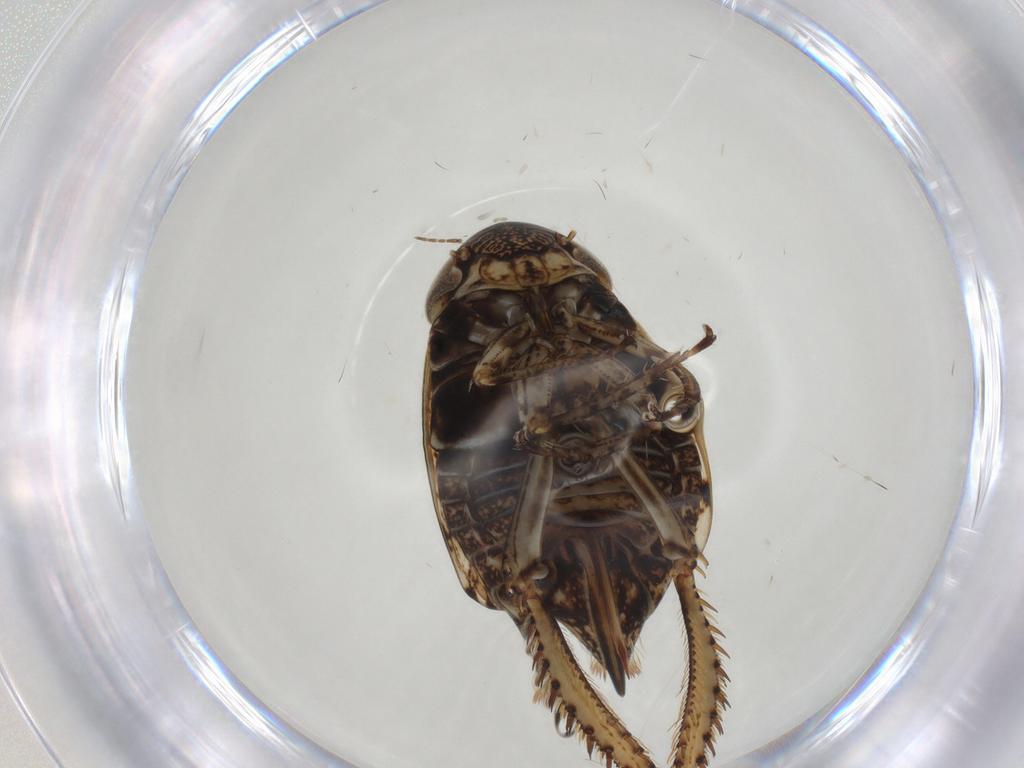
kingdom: Animalia
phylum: Arthropoda
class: Insecta
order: Hemiptera
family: Cicadellidae
